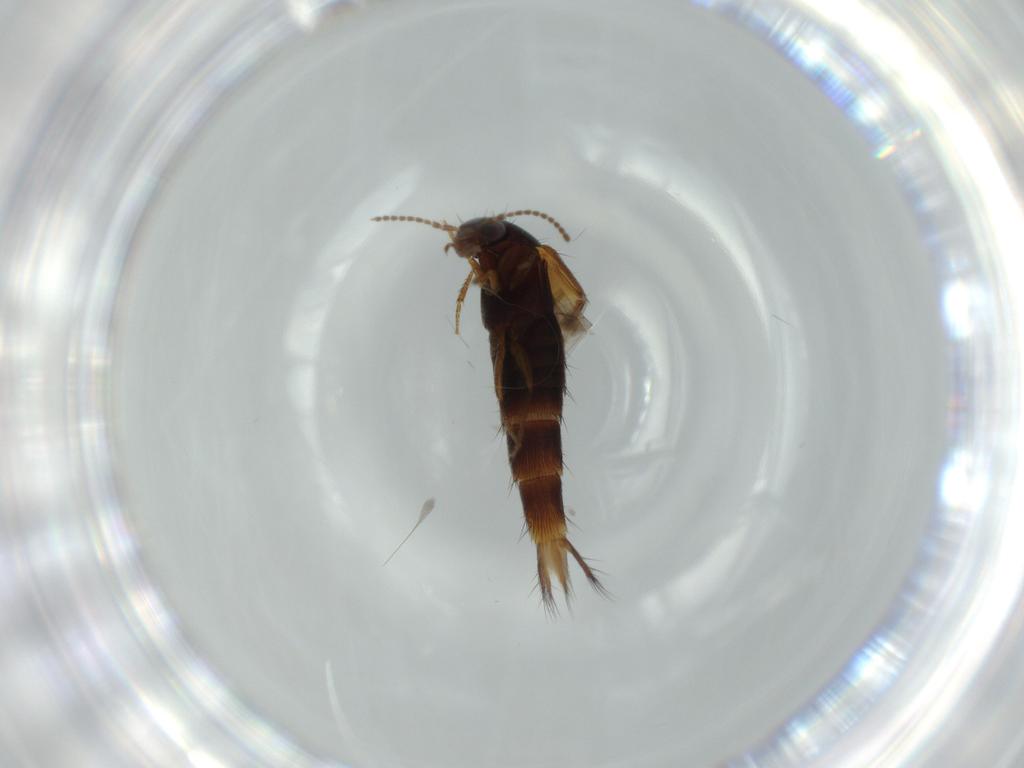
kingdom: Animalia
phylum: Arthropoda
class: Insecta
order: Coleoptera
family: Staphylinidae
